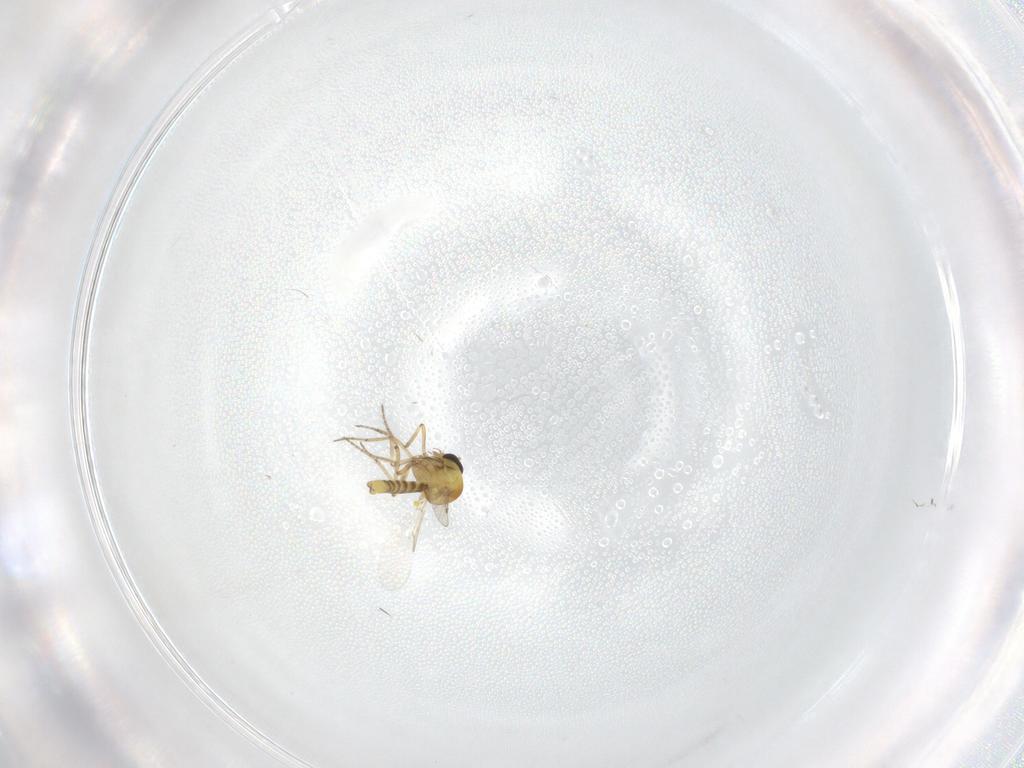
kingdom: Animalia
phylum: Arthropoda
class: Insecta
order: Diptera
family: Ceratopogonidae
